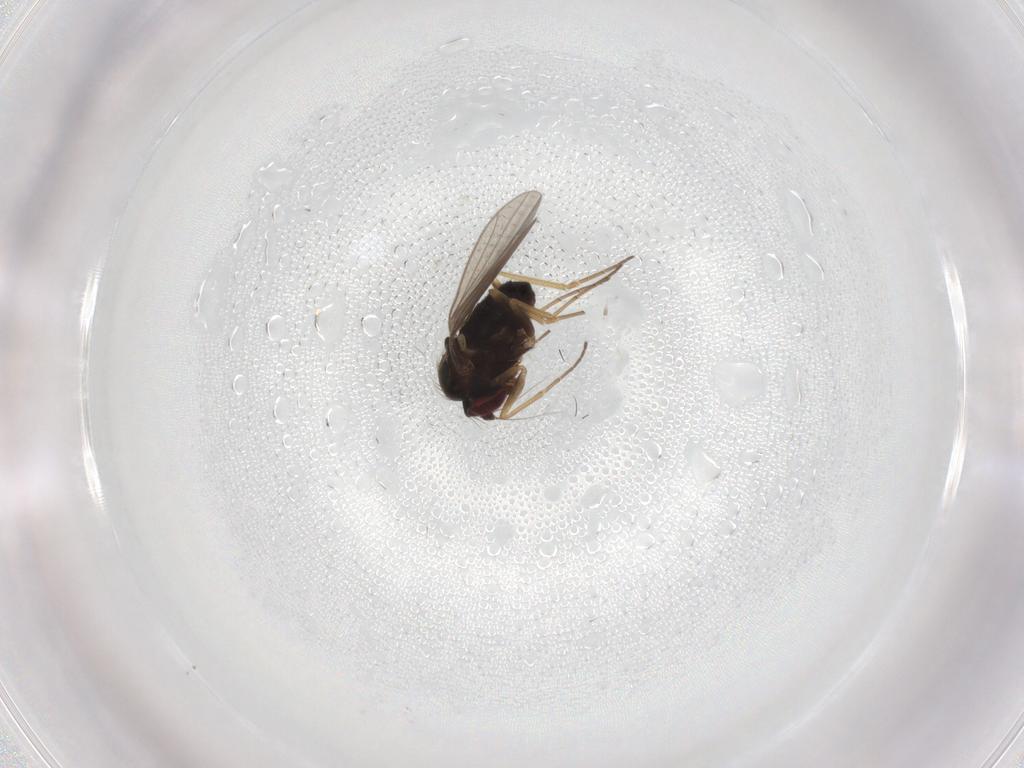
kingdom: Animalia
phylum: Arthropoda
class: Insecta
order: Diptera
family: Dolichopodidae
